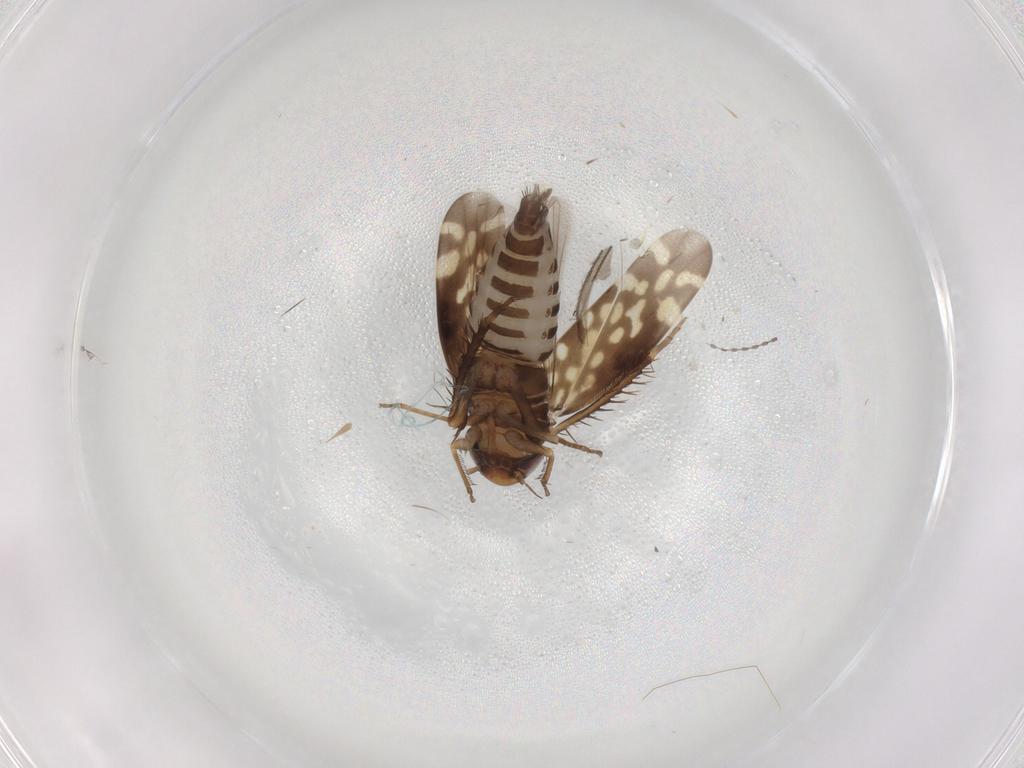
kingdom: Animalia
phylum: Arthropoda
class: Insecta
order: Hemiptera
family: Cicadellidae
